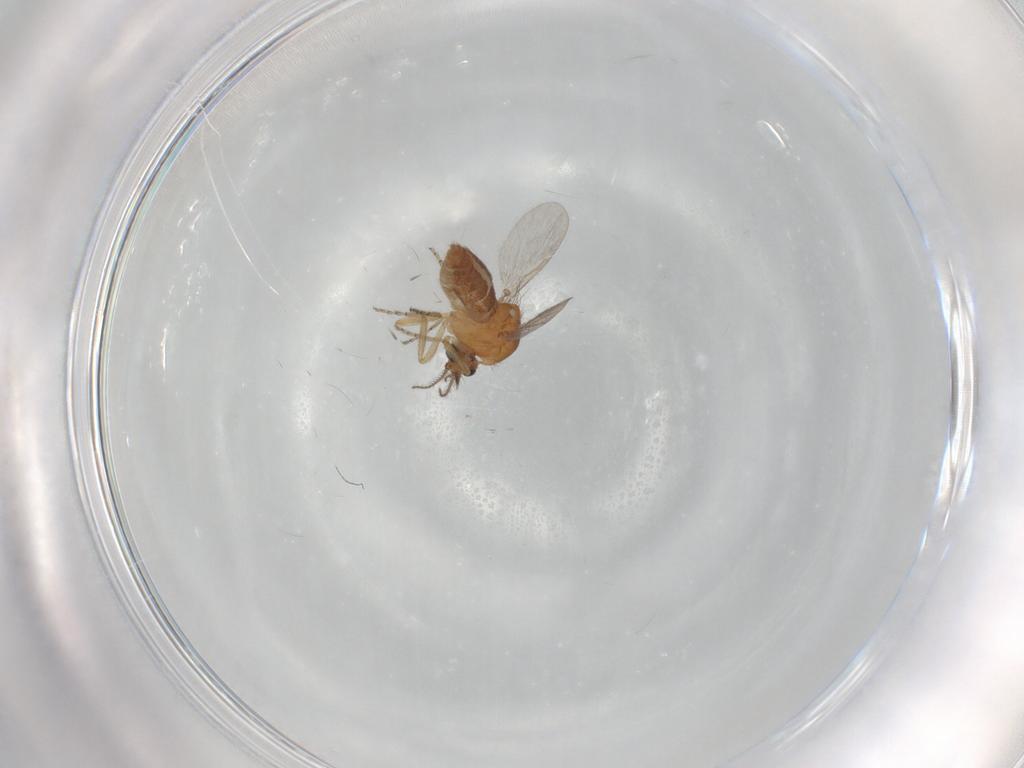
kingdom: Animalia
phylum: Arthropoda
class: Insecta
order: Diptera
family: Ceratopogonidae
